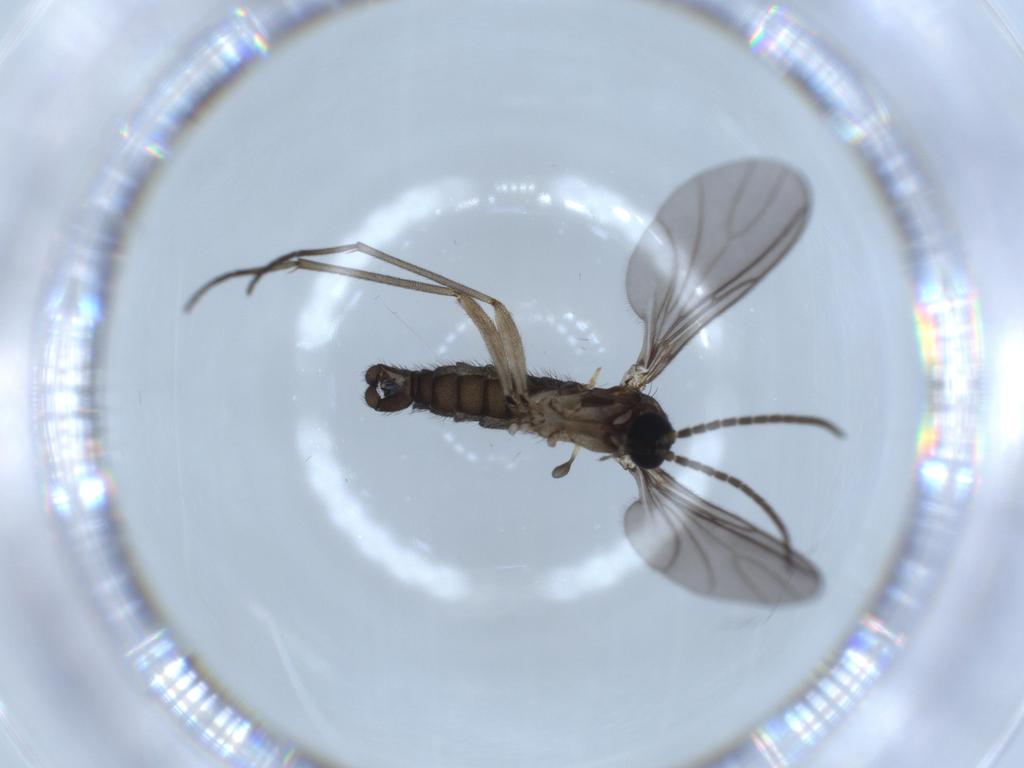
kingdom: Animalia
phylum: Arthropoda
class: Insecta
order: Diptera
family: Sciaridae
